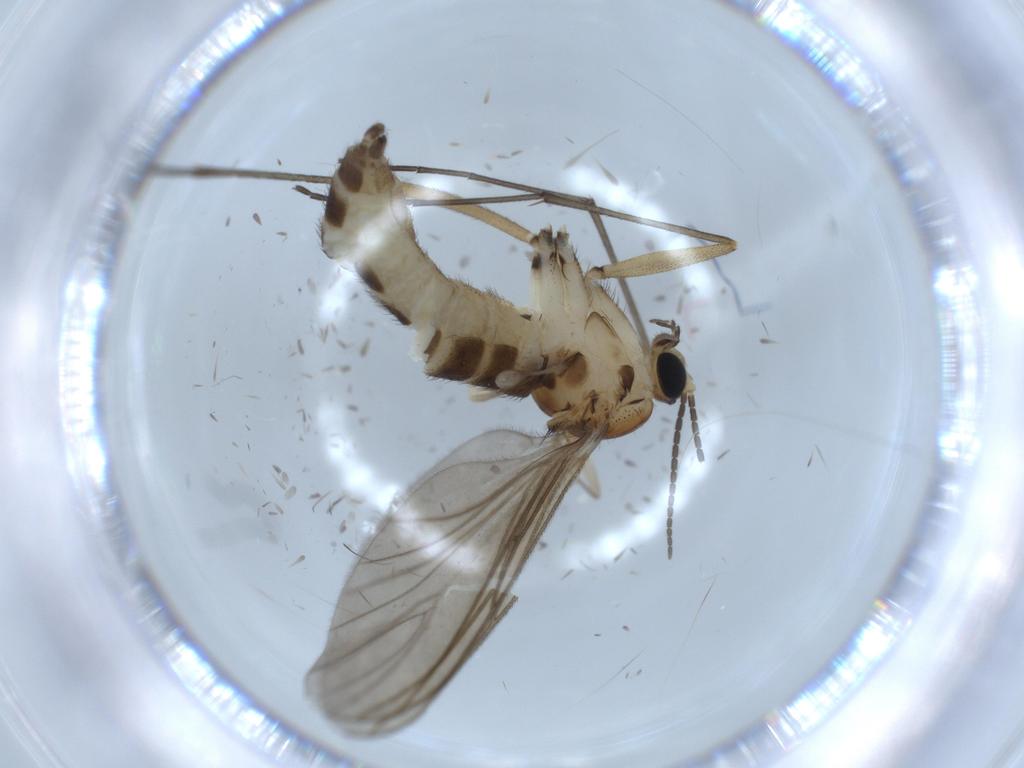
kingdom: Animalia
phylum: Arthropoda
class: Insecta
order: Diptera
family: Sciaridae
